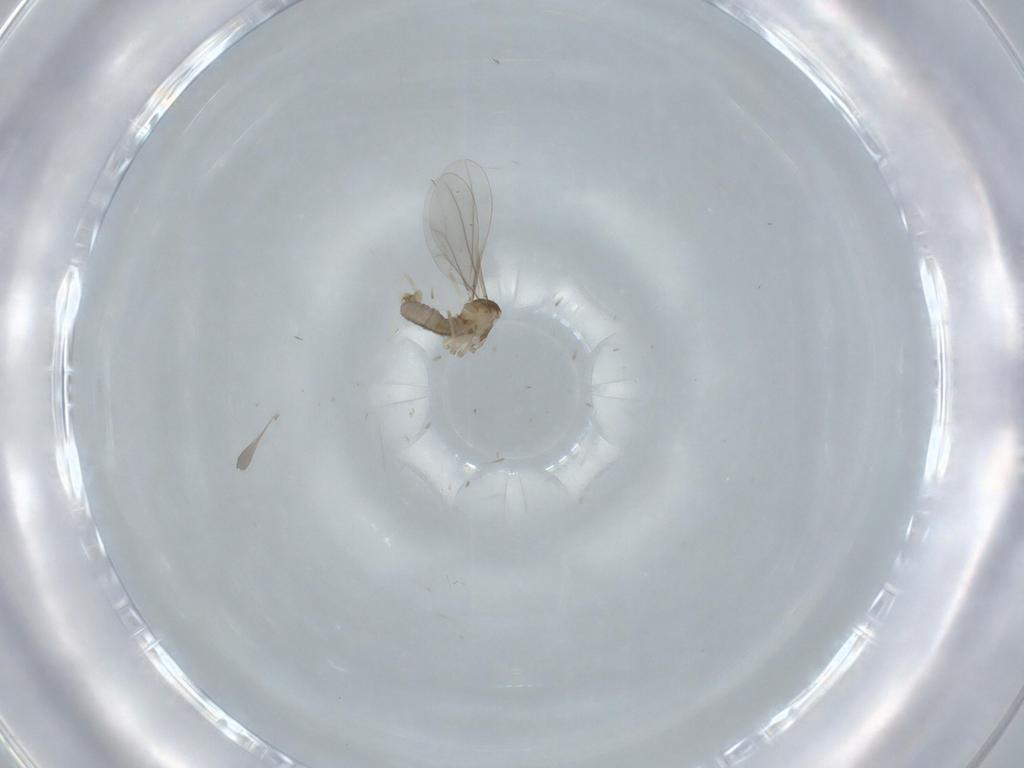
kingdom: Animalia
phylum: Arthropoda
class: Insecta
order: Diptera
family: Cecidomyiidae
